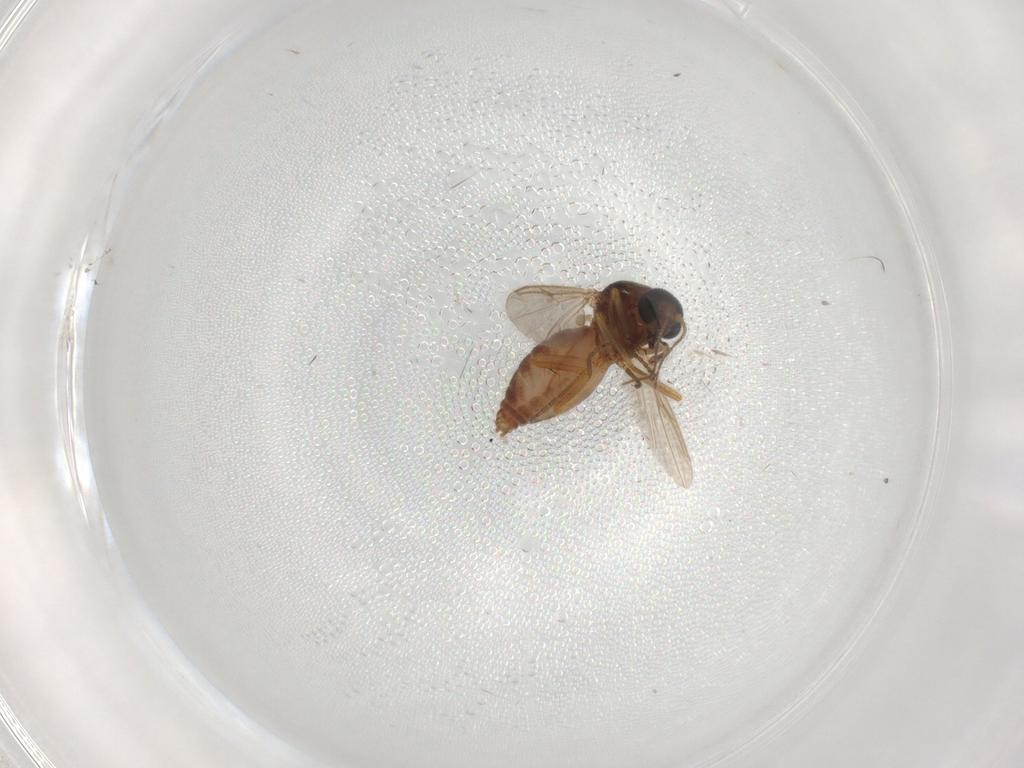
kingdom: Animalia
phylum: Arthropoda
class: Insecta
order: Diptera
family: Ceratopogonidae
